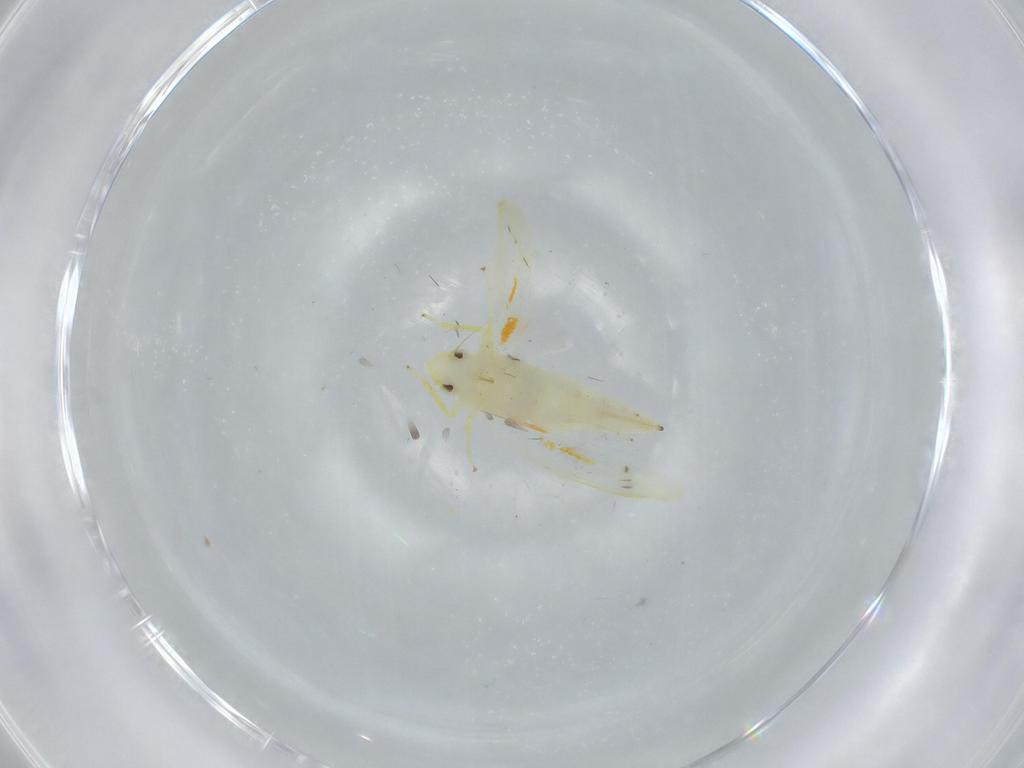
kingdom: Animalia
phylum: Arthropoda
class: Insecta
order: Hemiptera
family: Cicadellidae
